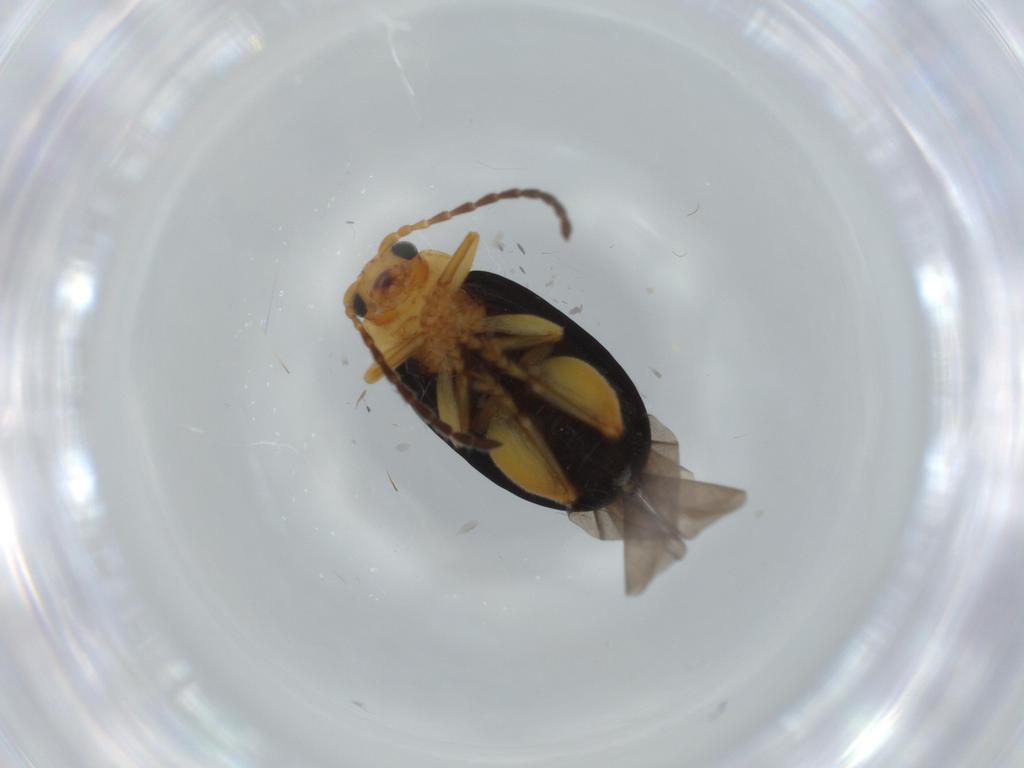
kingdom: Animalia
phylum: Arthropoda
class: Insecta
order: Coleoptera
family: Chrysomelidae
